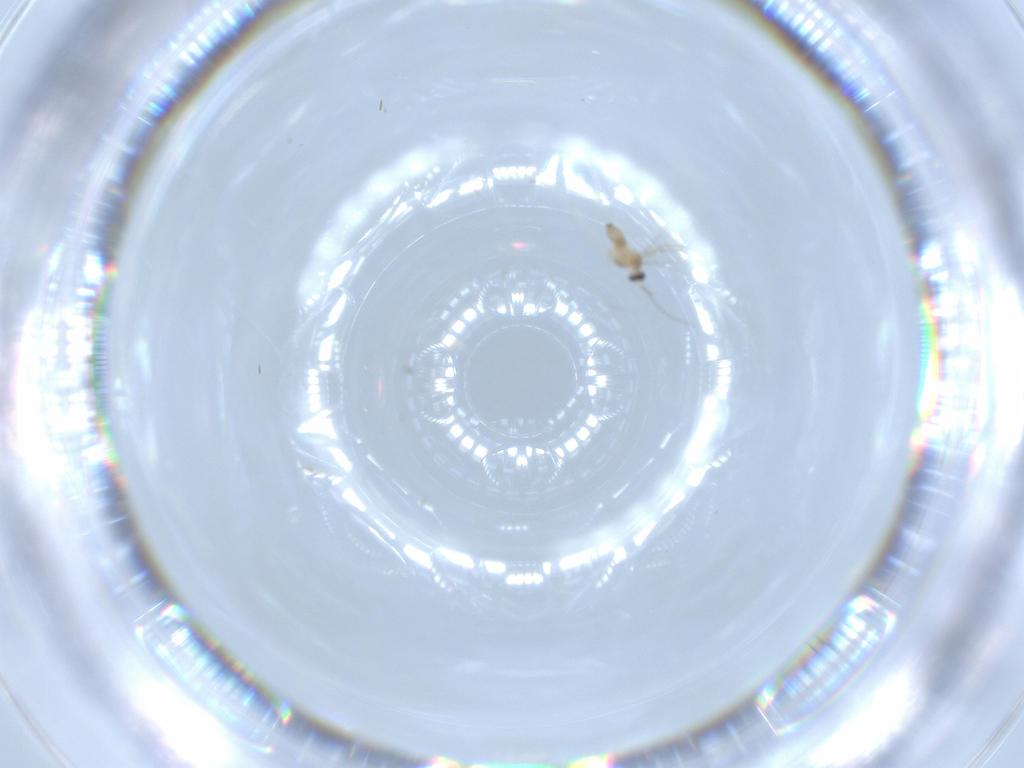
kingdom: Animalia
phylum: Arthropoda
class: Insecta
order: Diptera
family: Cecidomyiidae
